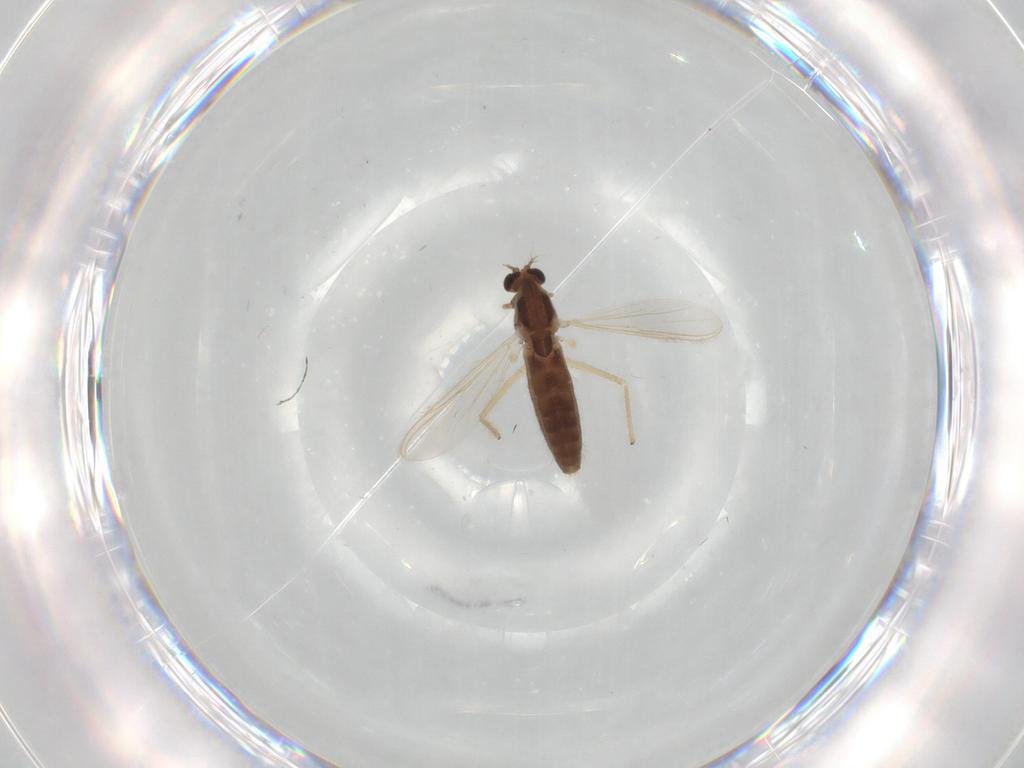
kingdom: Animalia
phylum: Arthropoda
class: Insecta
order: Diptera
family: Chironomidae
